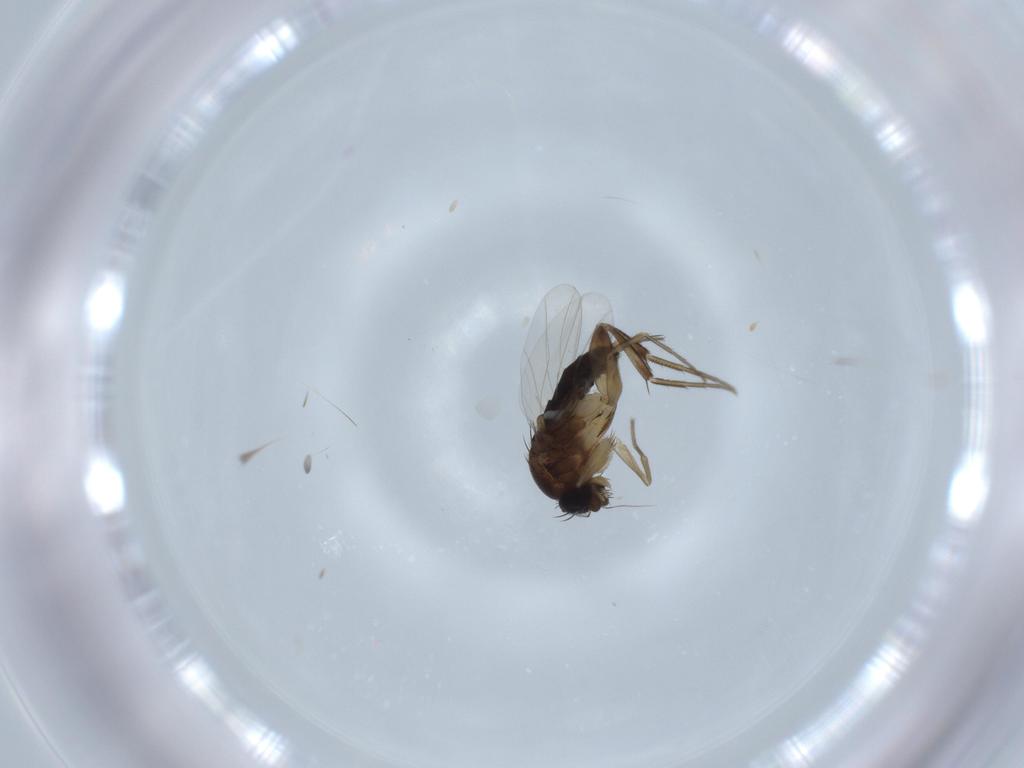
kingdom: Animalia
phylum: Arthropoda
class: Insecta
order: Diptera
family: Phoridae
